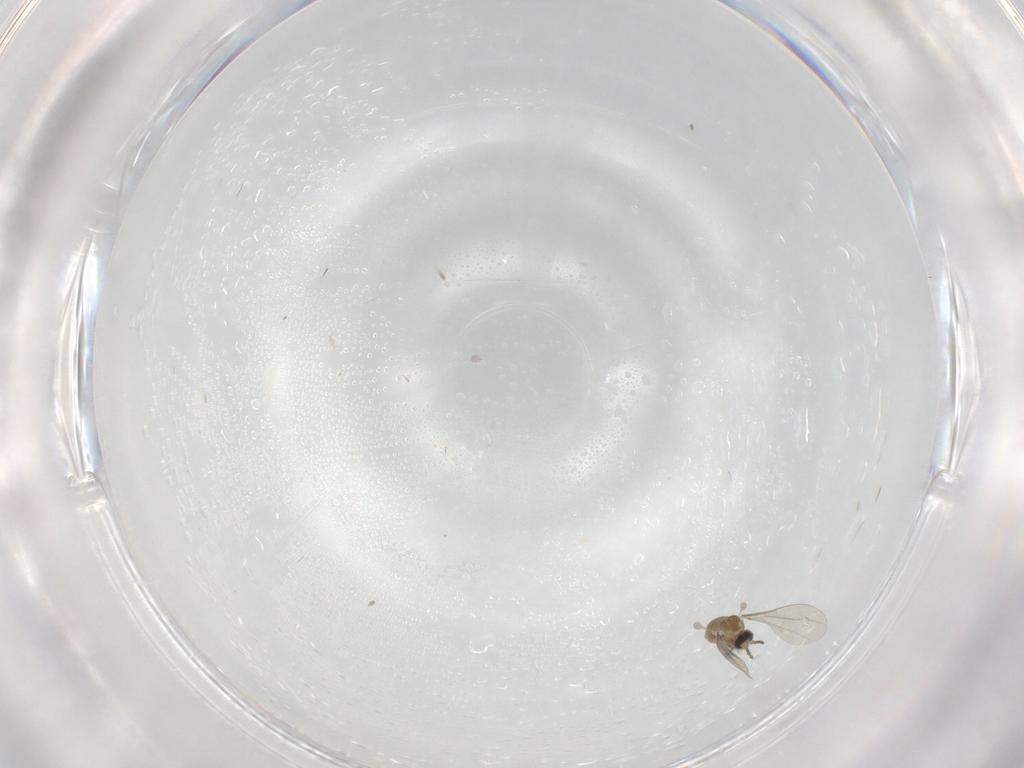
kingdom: Animalia
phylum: Arthropoda
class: Insecta
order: Diptera
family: Cecidomyiidae
